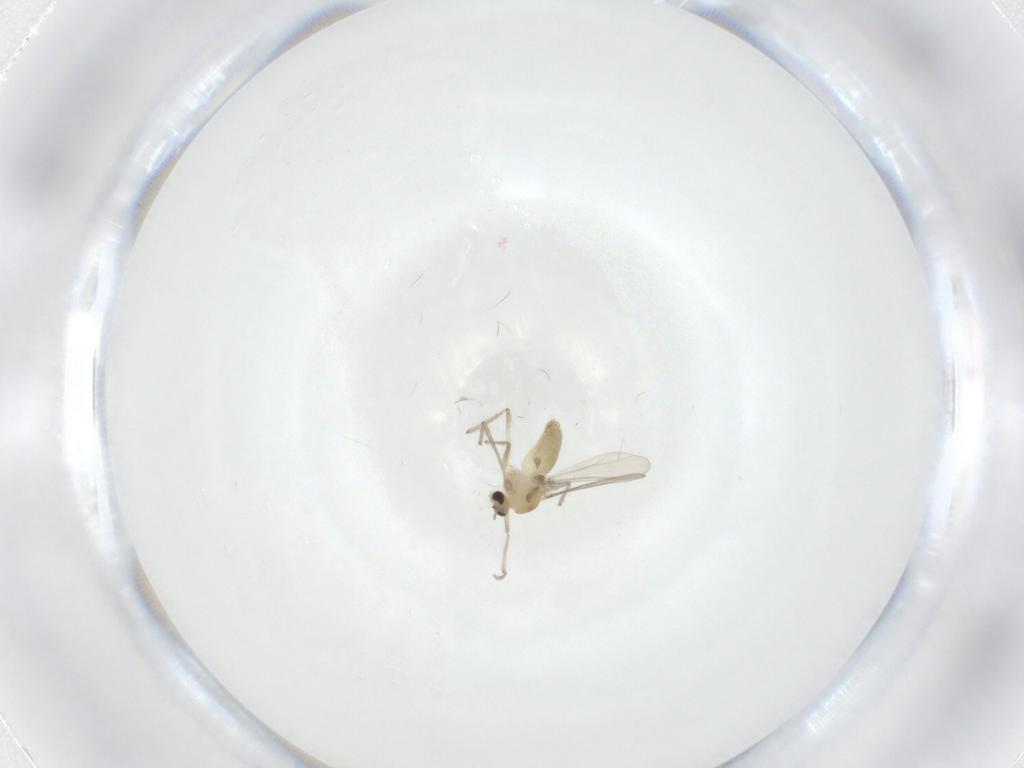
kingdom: Animalia
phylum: Arthropoda
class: Insecta
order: Diptera
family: Chironomidae
